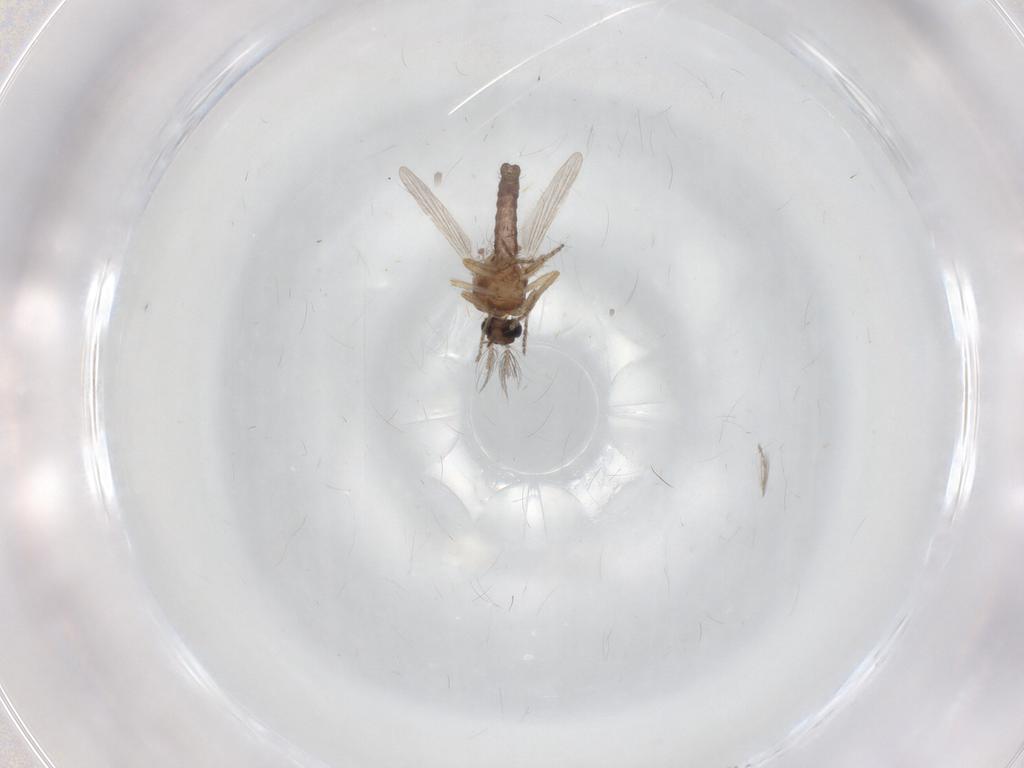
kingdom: Animalia
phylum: Arthropoda
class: Insecta
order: Diptera
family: Ceratopogonidae
